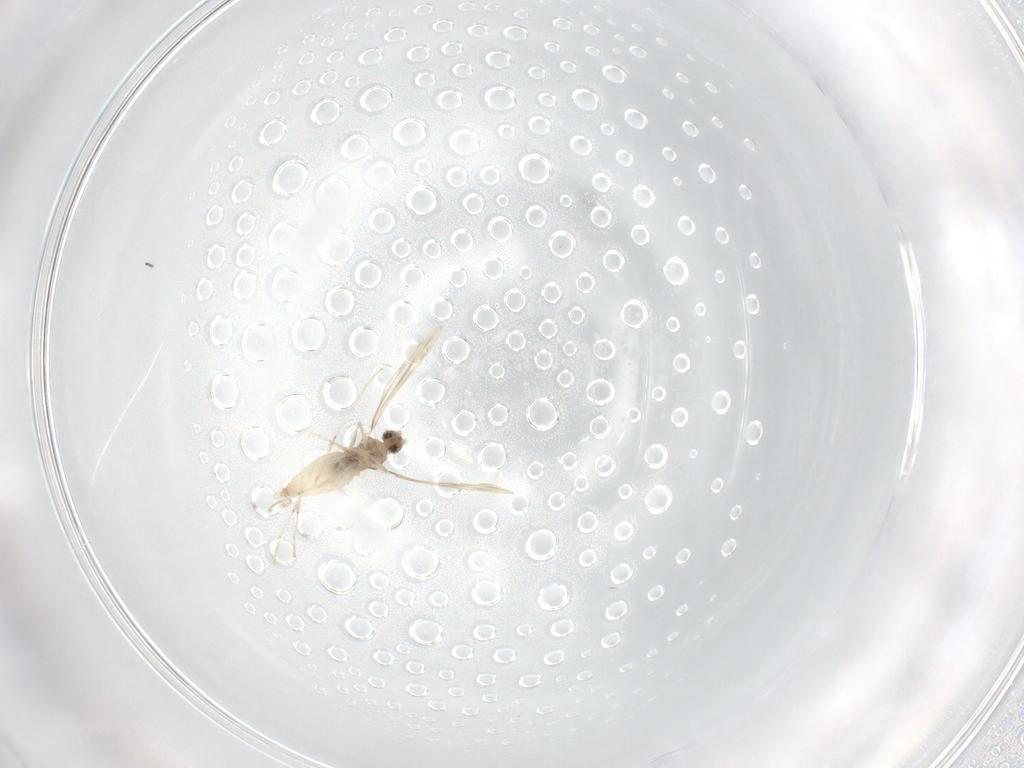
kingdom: Animalia
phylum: Arthropoda
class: Insecta
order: Diptera
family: Cecidomyiidae
